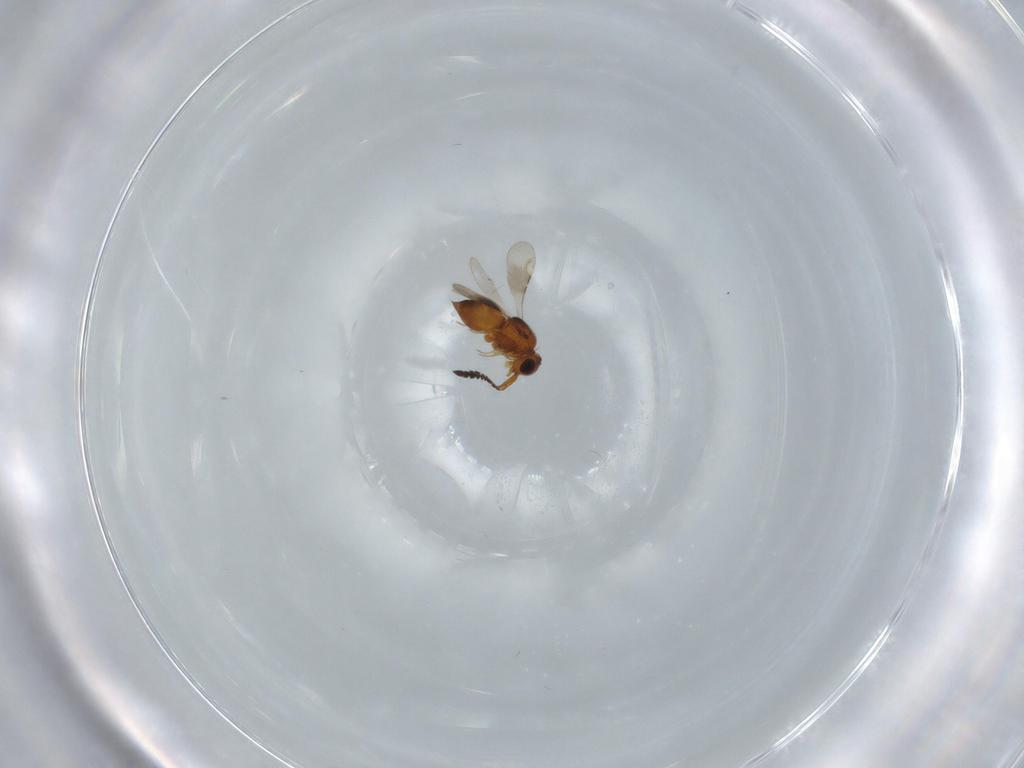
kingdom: Animalia
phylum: Arthropoda
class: Insecta
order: Hymenoptera
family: Ceraphronidae
